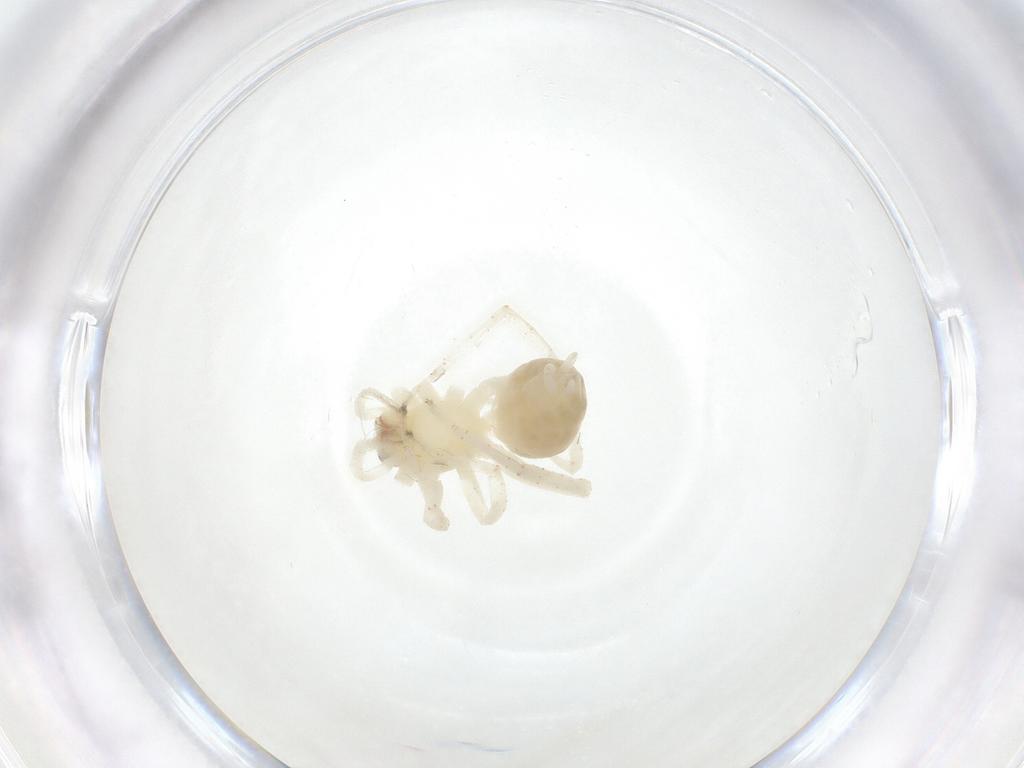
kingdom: Animalia
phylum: Arthropoda
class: Arachnida
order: Araneae
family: Anyphaenidae
